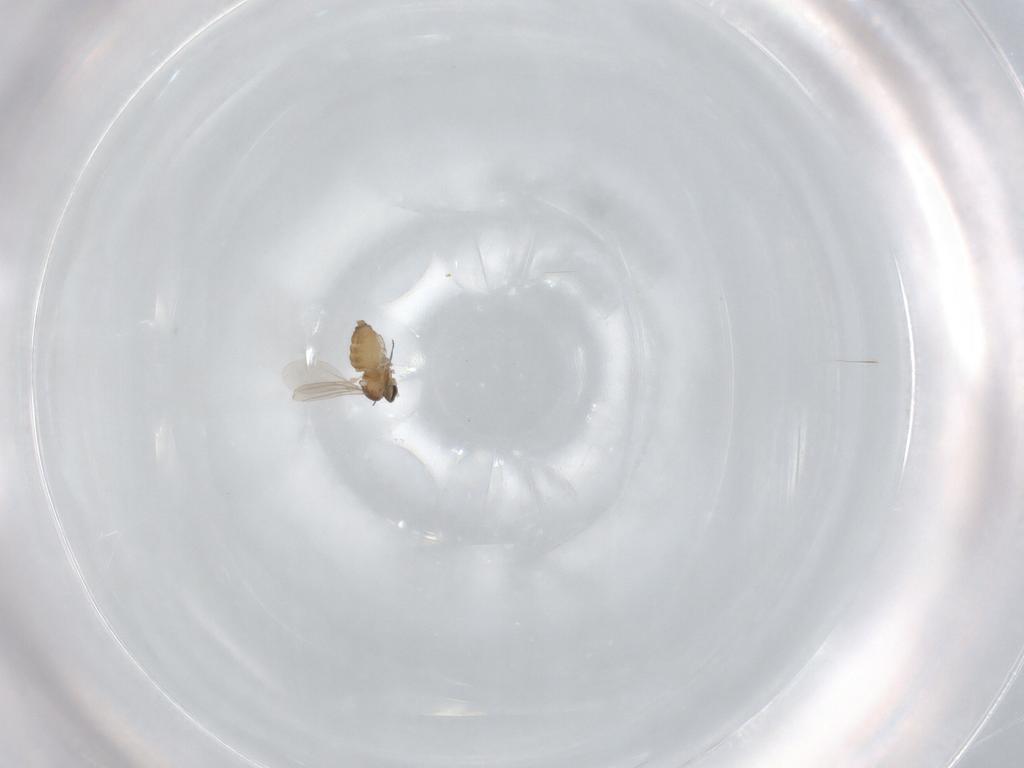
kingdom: Animalia
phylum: Arthropoda
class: Insecta
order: Diptera
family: Cecidomyiidae
